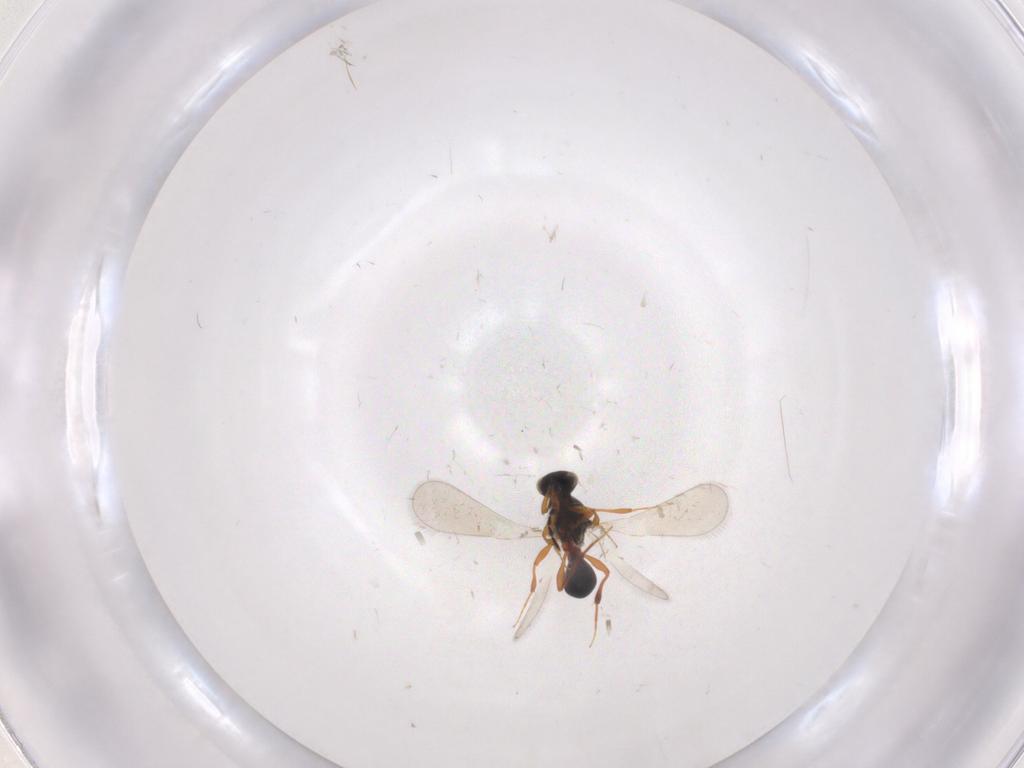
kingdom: Animalia
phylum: Arthropoda
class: Insecta
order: Hymenoptera
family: Platygastridae
